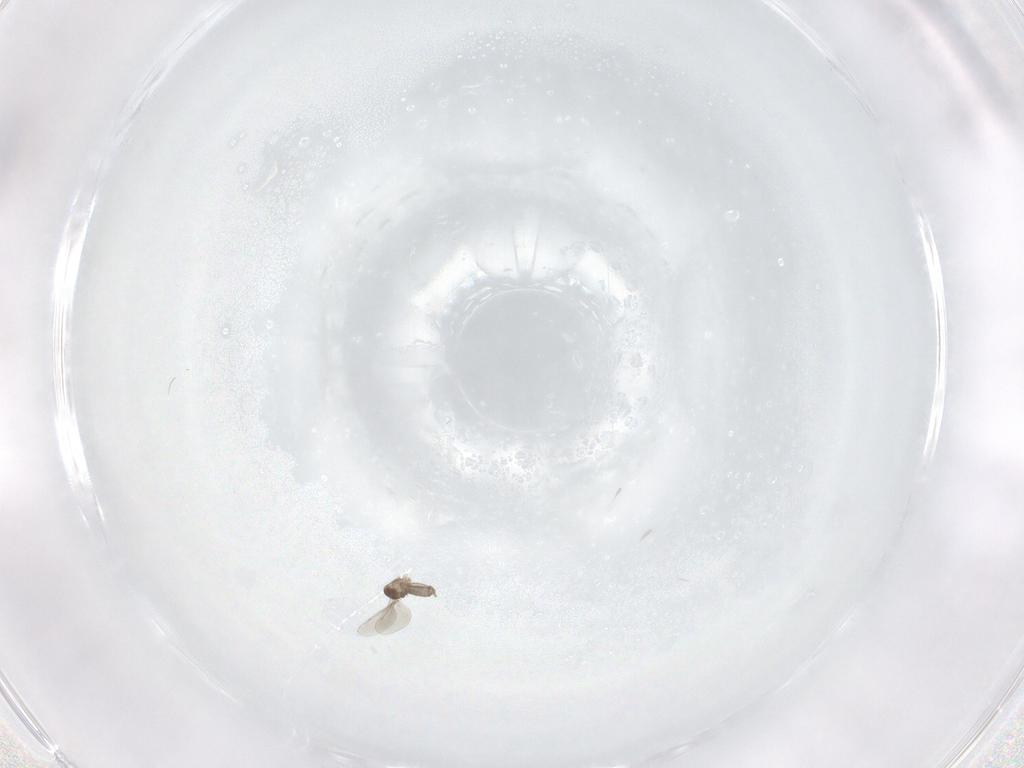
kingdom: Animalia
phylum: Arthropoda
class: Insecta
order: Diptera
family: Cecidomyiidae
